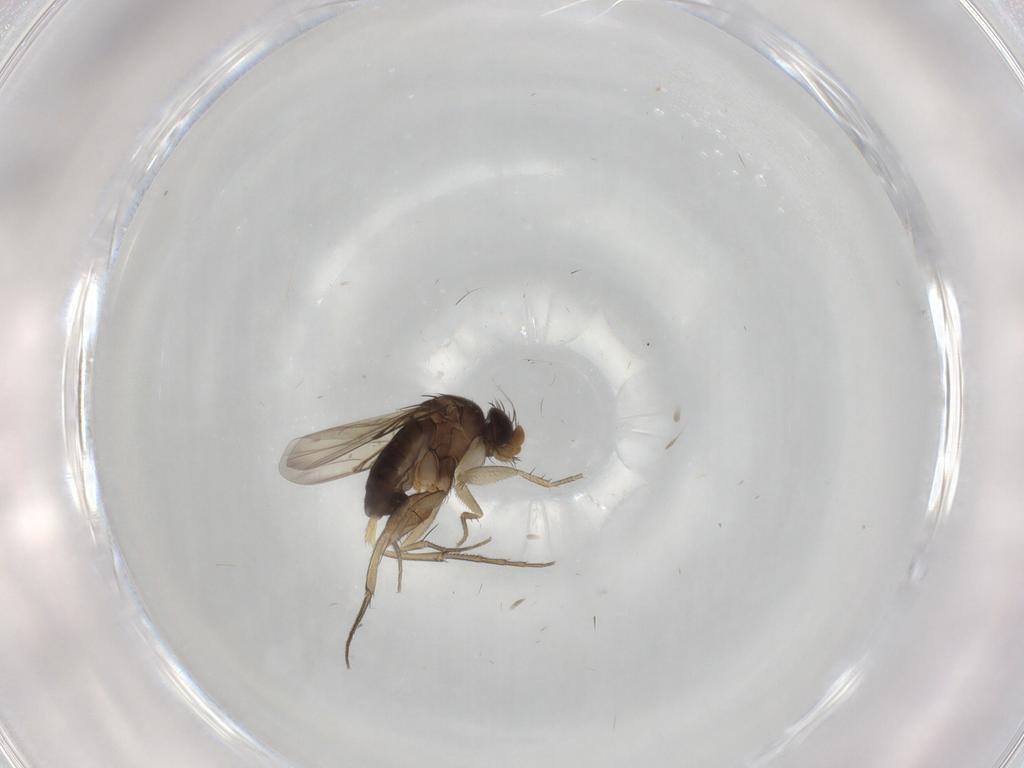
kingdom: Animalia
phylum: Arthropoda
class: Insecta
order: Diptera
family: Phoridae
